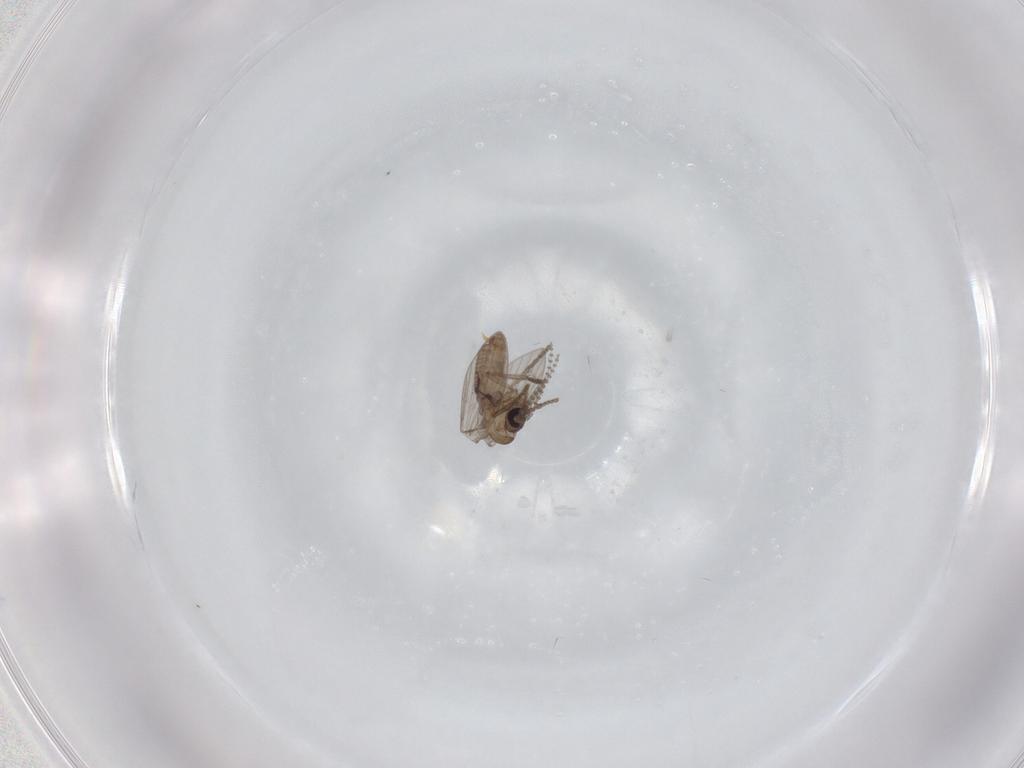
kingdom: Animalia
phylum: Arthropoda
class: Insecta
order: Diptera
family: Psychodidae
